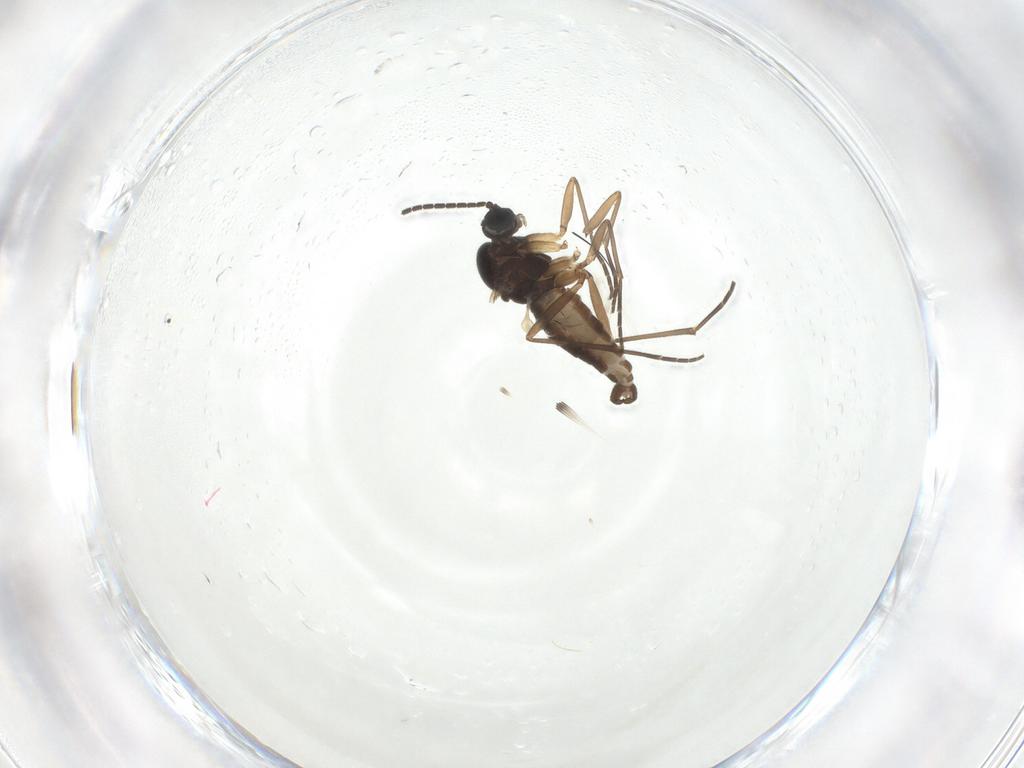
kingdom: Animalia
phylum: Arthropoda
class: Insecta
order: Diptera
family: Sciaridae
